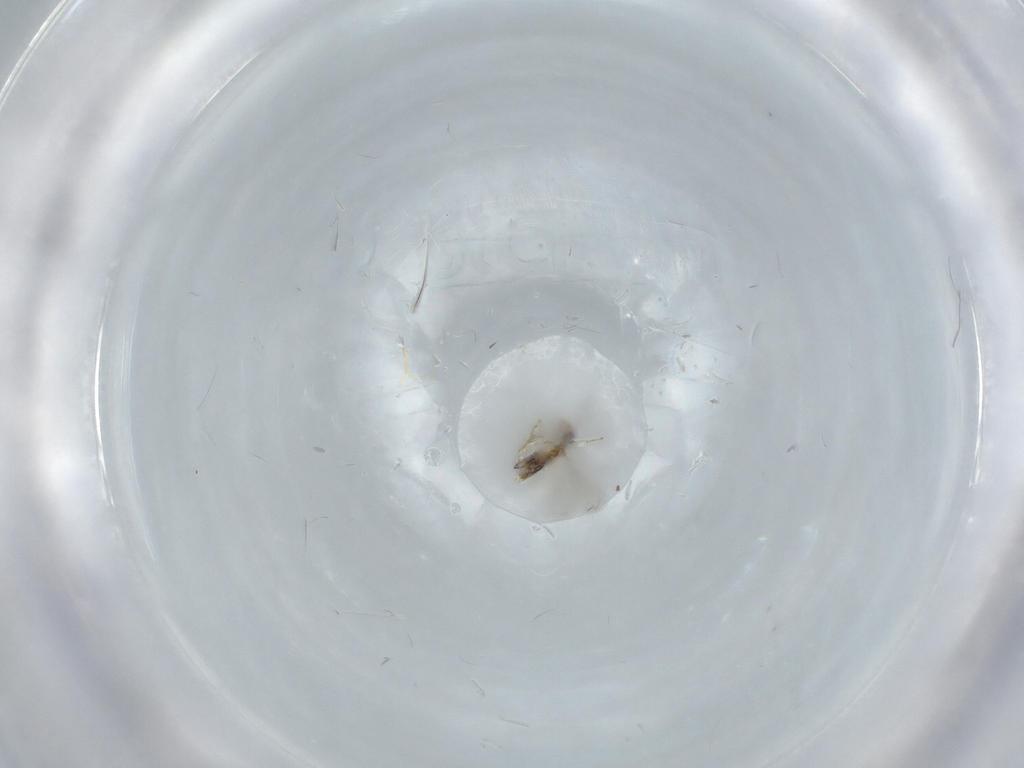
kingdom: Animalia
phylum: Arthropoda
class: Insecta
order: Hymenoptera
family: Aphelinidae
